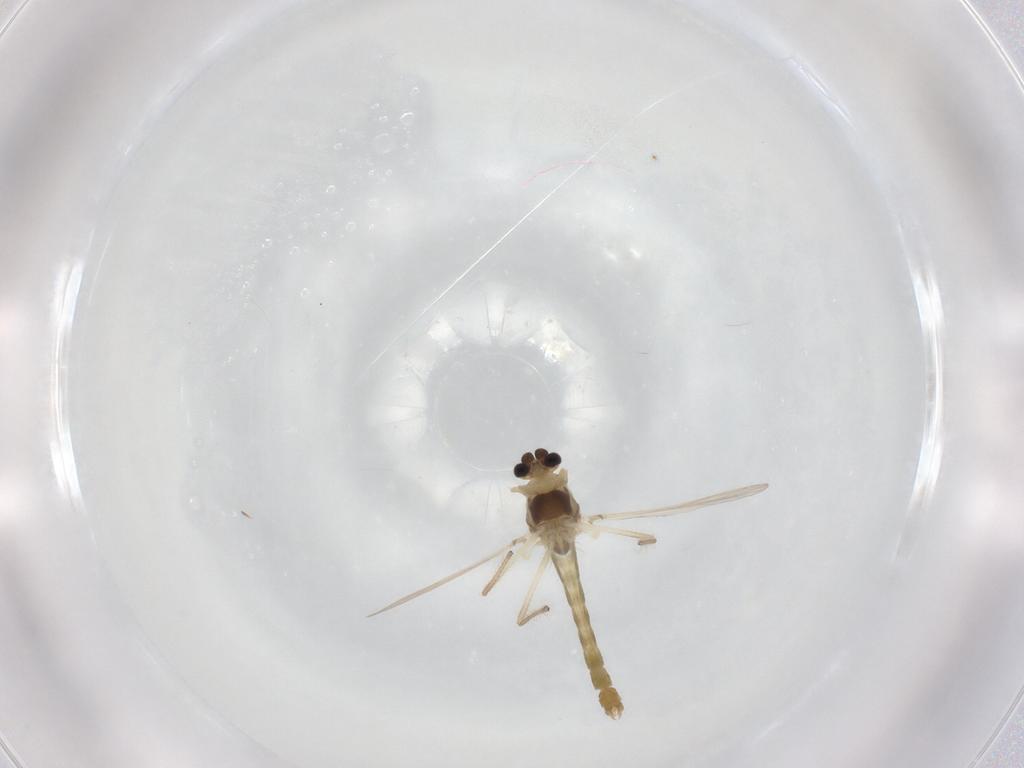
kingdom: Animalia
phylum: Arthropoda
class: Insecta
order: Diptera
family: Chironomidae
